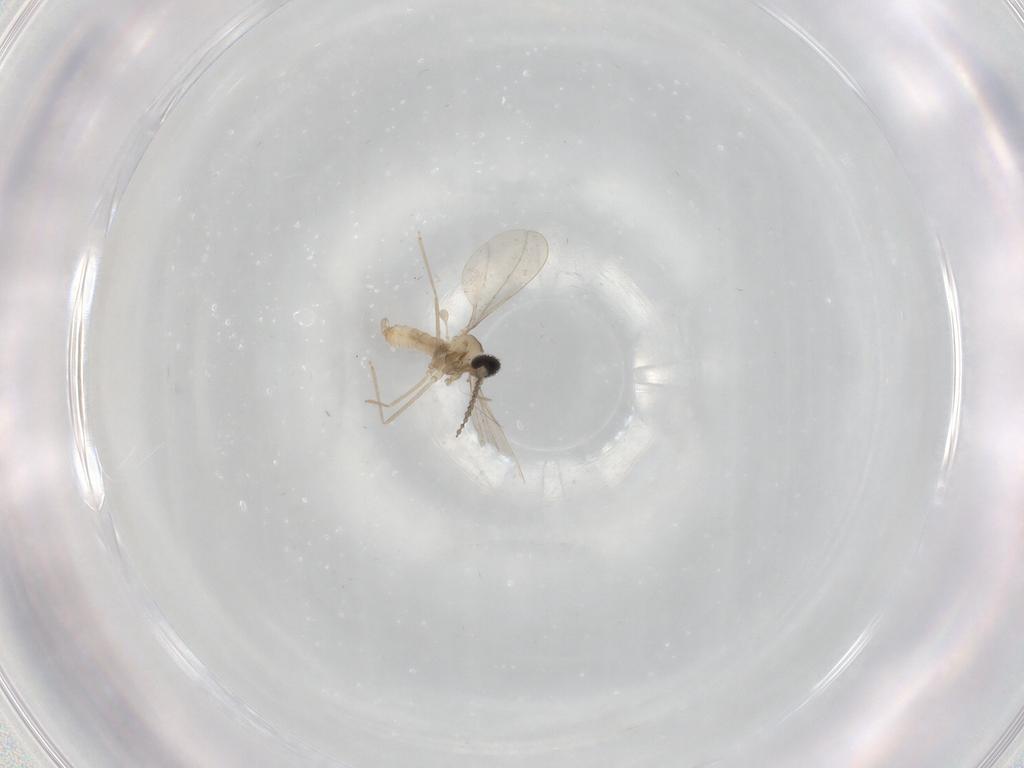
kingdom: Animalia
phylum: Arthropoda
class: Insecta
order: Diptera
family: Cecidomyiidae
